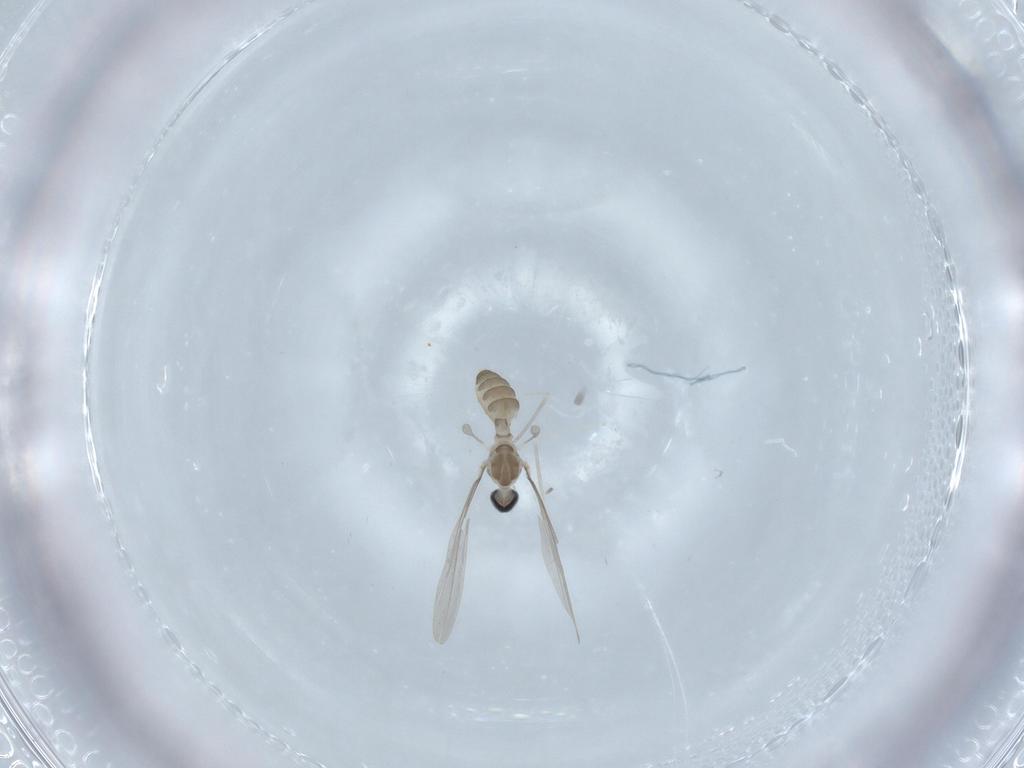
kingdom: Animalia
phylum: Arthropoda
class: Insecta
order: Diptera
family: Cecidomyiidae
